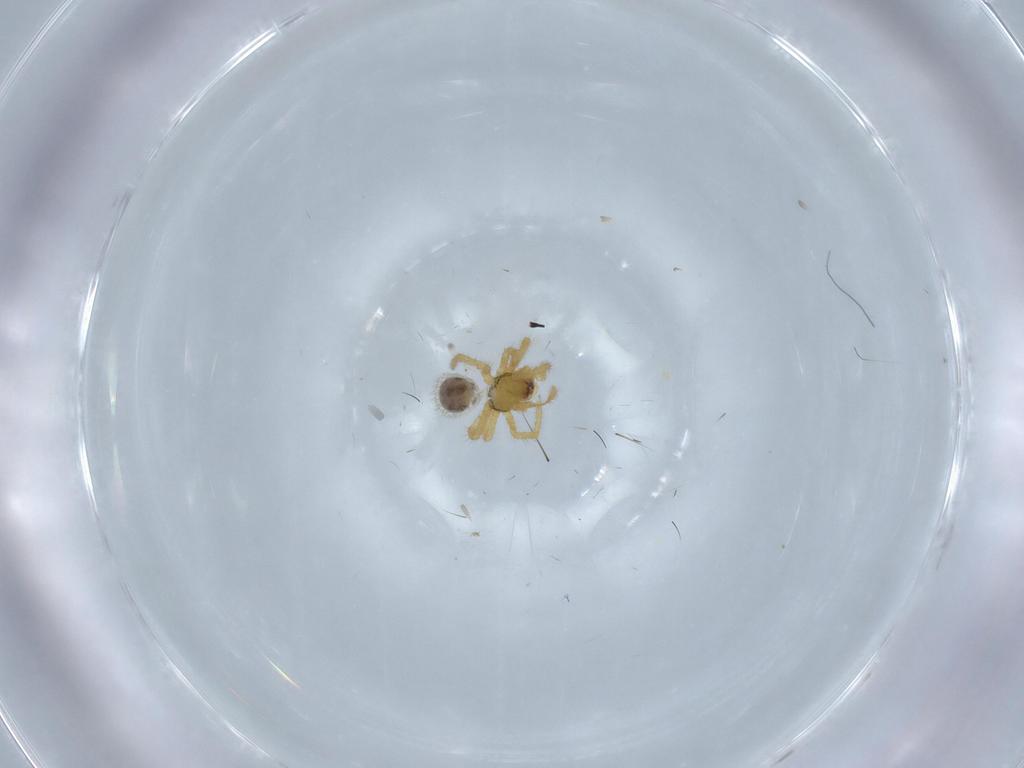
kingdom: Animalia
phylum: Arthropoda
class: Arachnida
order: Araneae
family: Theridiidae
